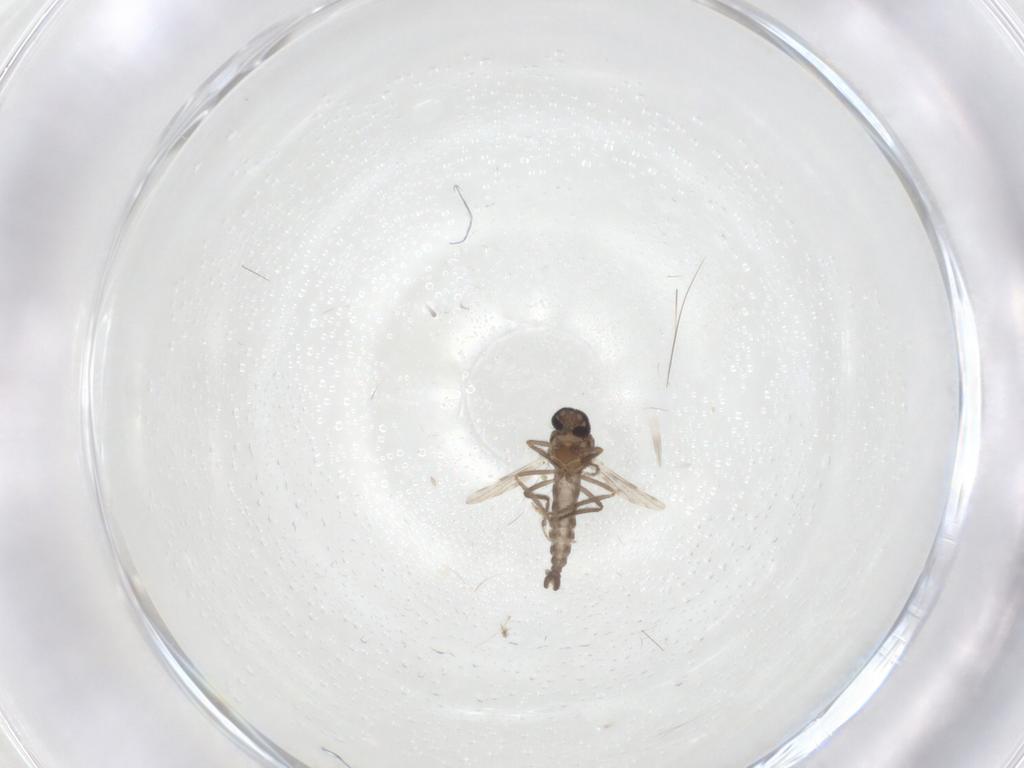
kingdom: Animalia
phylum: Arthropoda
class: Insecta
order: Diptera
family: Ceratopogonidae
